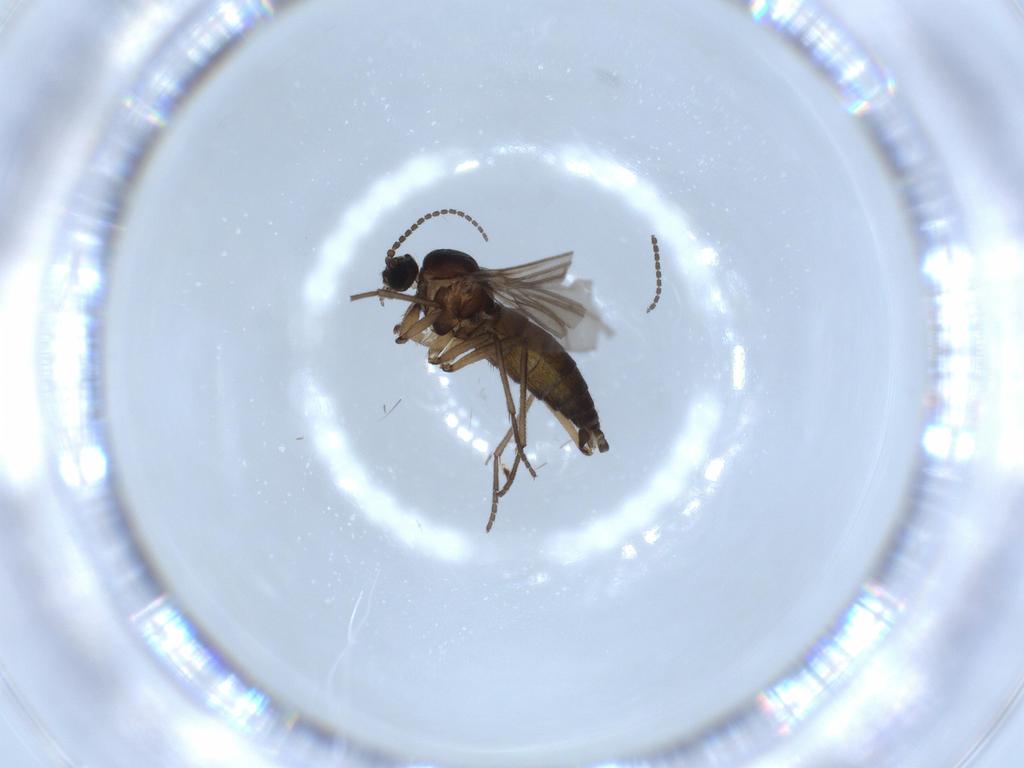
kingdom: Animalia
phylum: Arthropoda
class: Insecta
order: Diptera
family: Sciaridae
